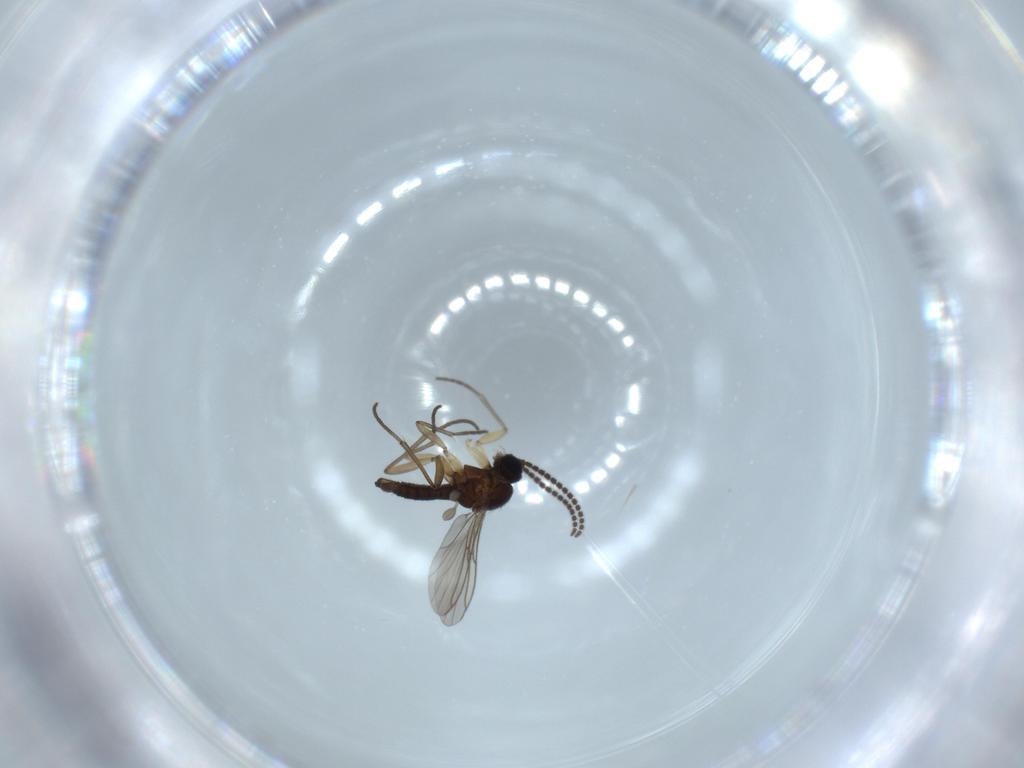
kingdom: Animalia
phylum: Arthropoda
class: Insecta
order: Diptera
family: Sciaridae
